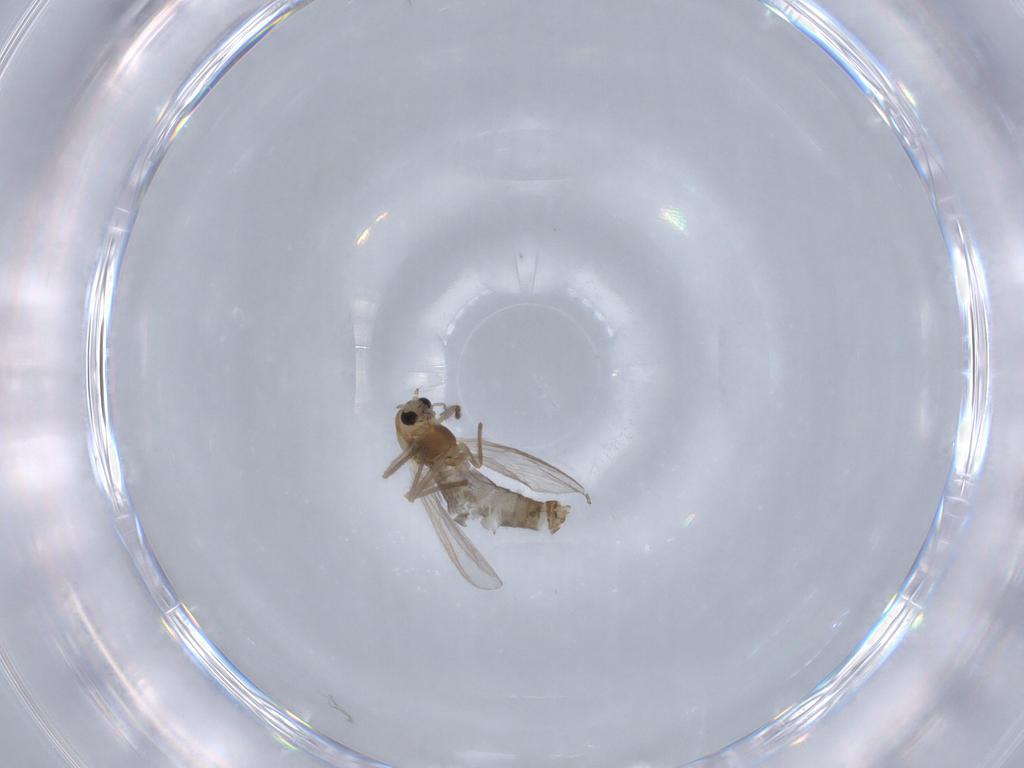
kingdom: Animalia
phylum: Arthropoda
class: Insecta
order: Diptera
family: Chironomidae
